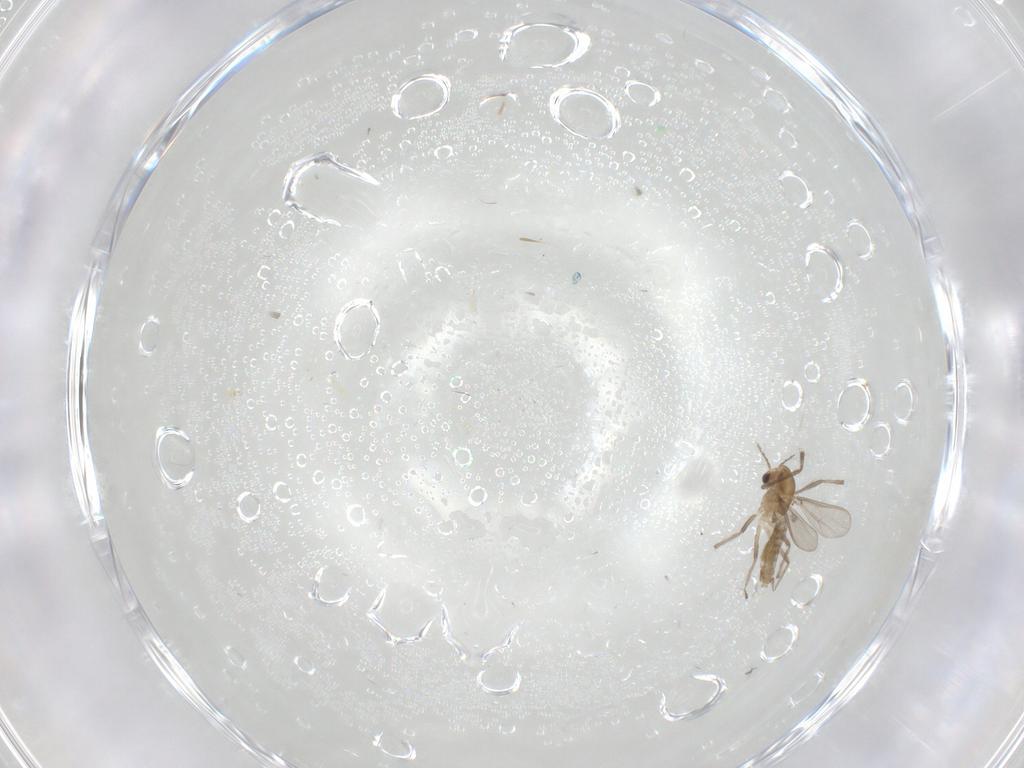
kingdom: Animalia
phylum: Arthropoda
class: Insecta
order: Diptera
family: Chironomidae
